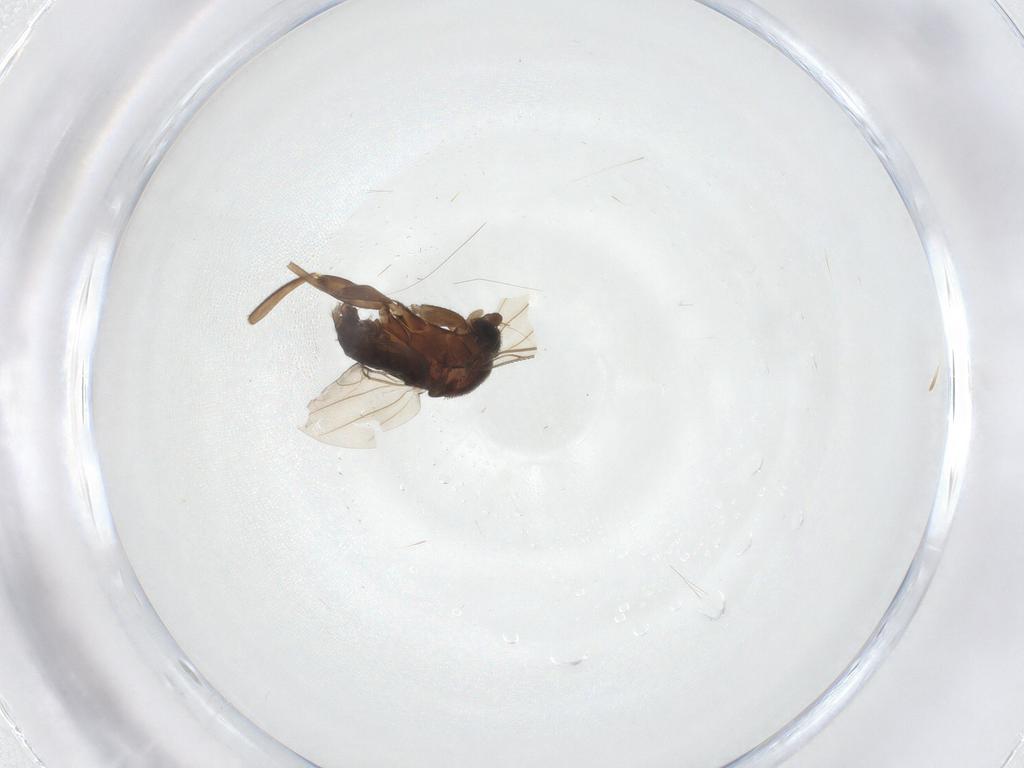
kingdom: Animalia
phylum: Arthropoda
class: Insecta
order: Diptera
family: Phoridae
